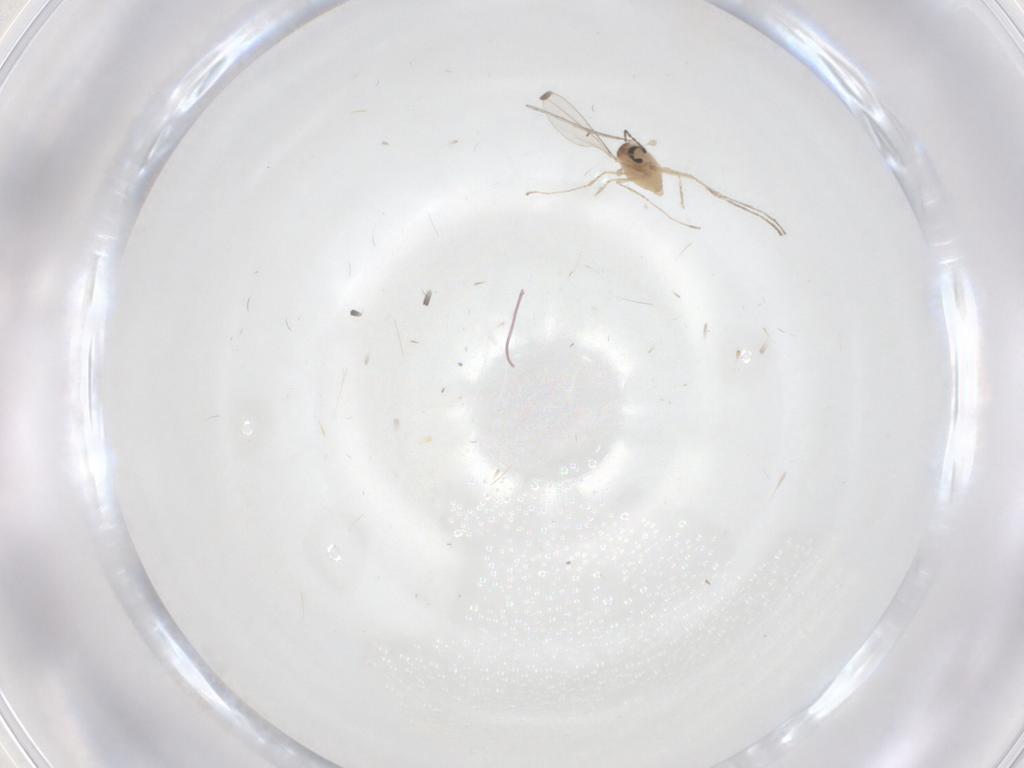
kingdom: Animalia
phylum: Arthropoda
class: Insecta
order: Diptera
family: Cecidomyiidae
